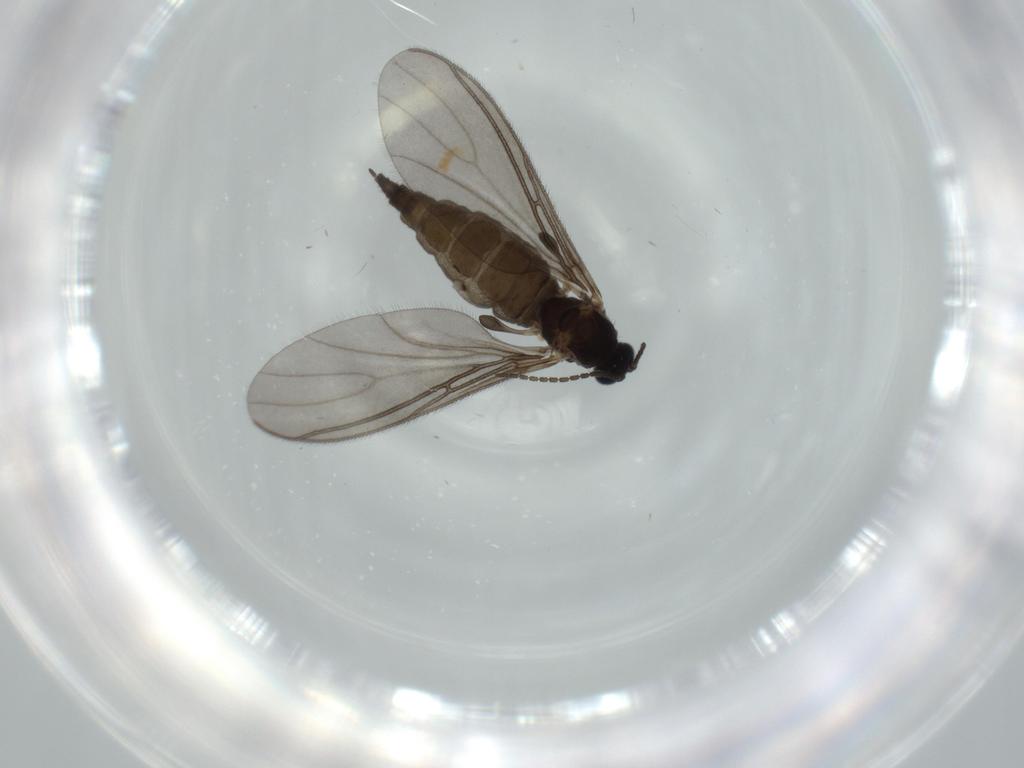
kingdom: Animalia
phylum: Arthropoda
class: Insecta
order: Diptera
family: Sciaridae
